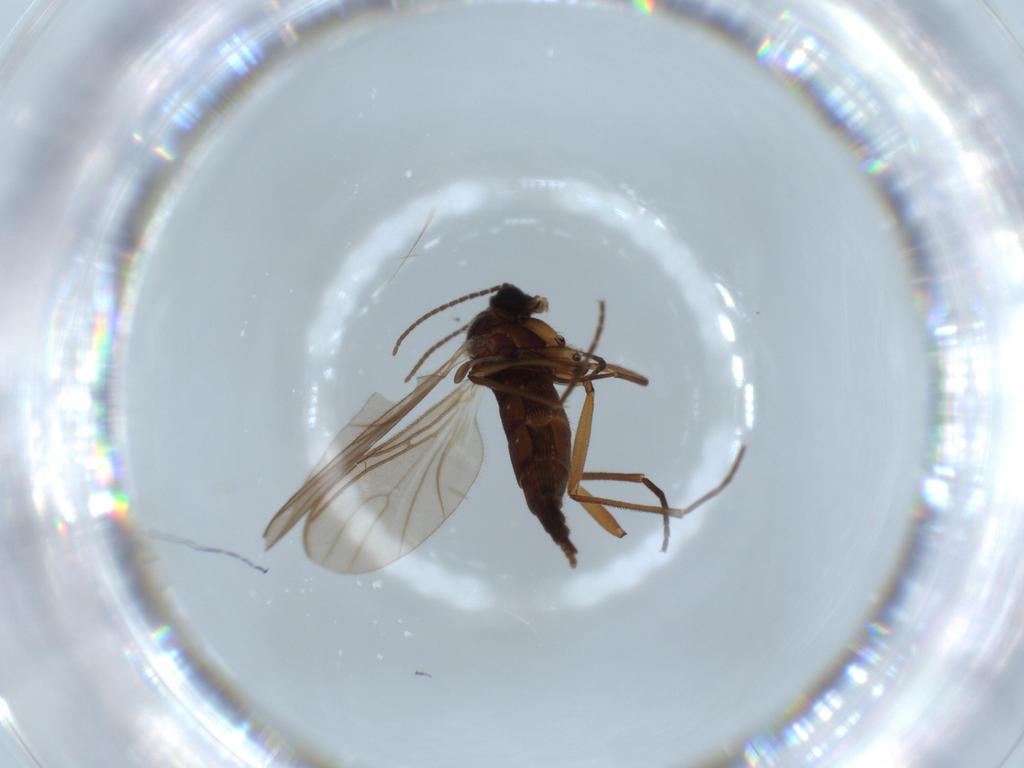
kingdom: Animalia
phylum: Arthropoda
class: Insecta
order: Diptera
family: Sciaridae
